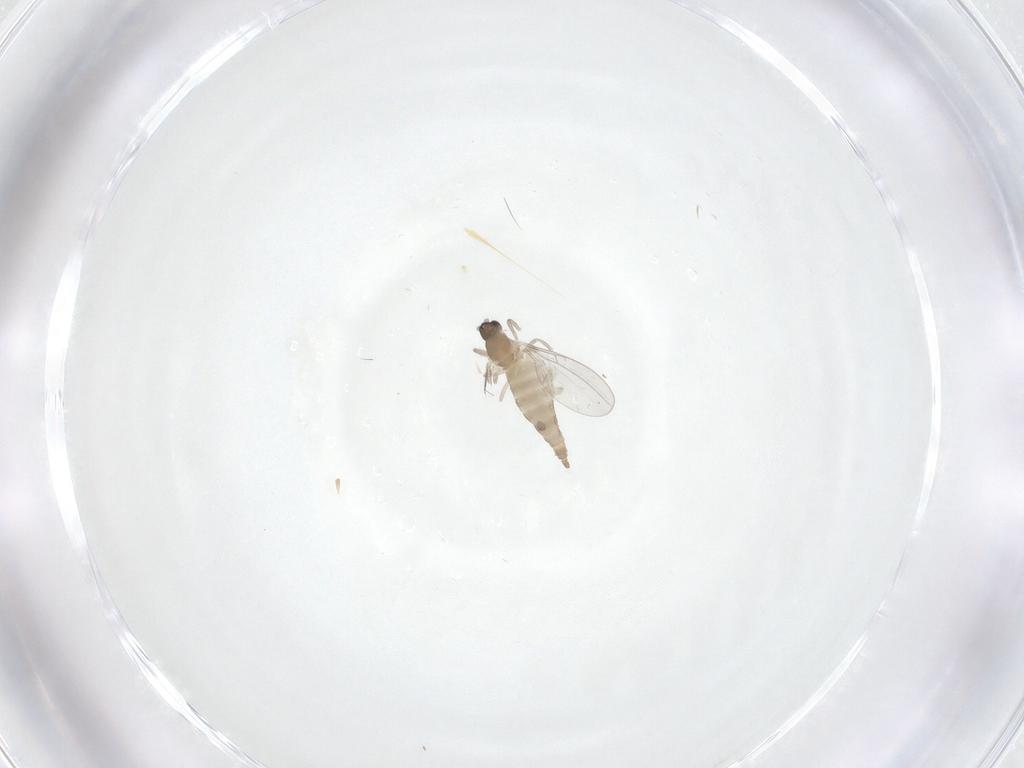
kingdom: Animalia
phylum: Arthropoda
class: Insecta
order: Diptera
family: Cecidomyiidae
